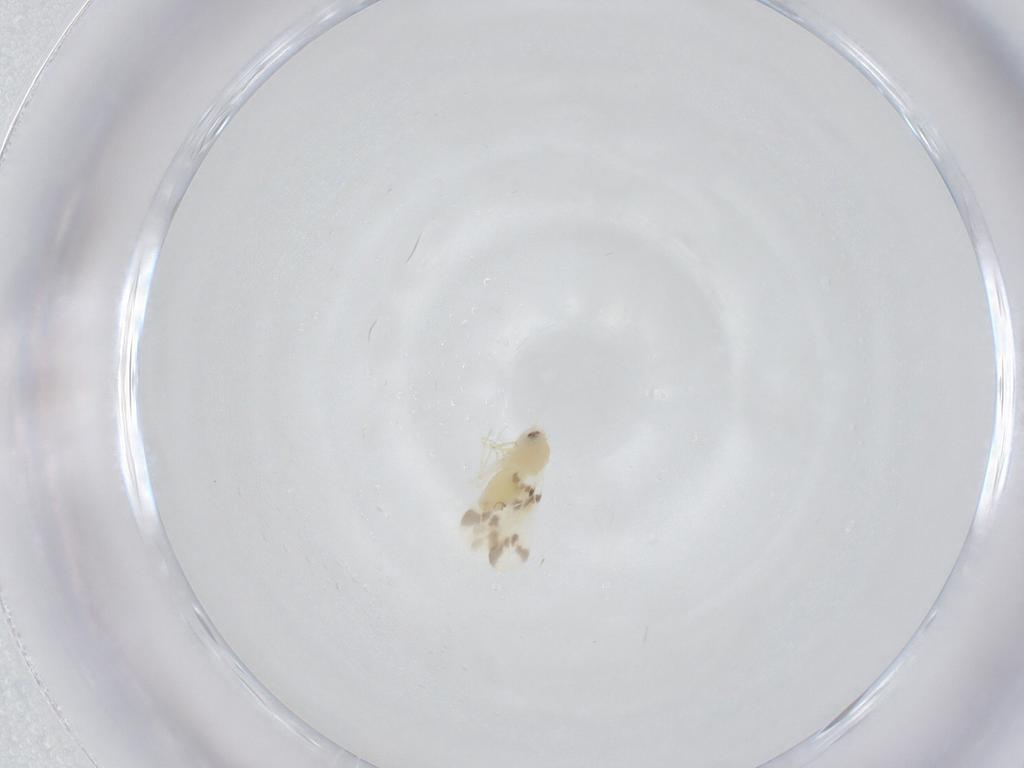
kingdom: Animalia
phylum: Arthropoda
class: Insecta
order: Hemiptera
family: Aleyrodidae
